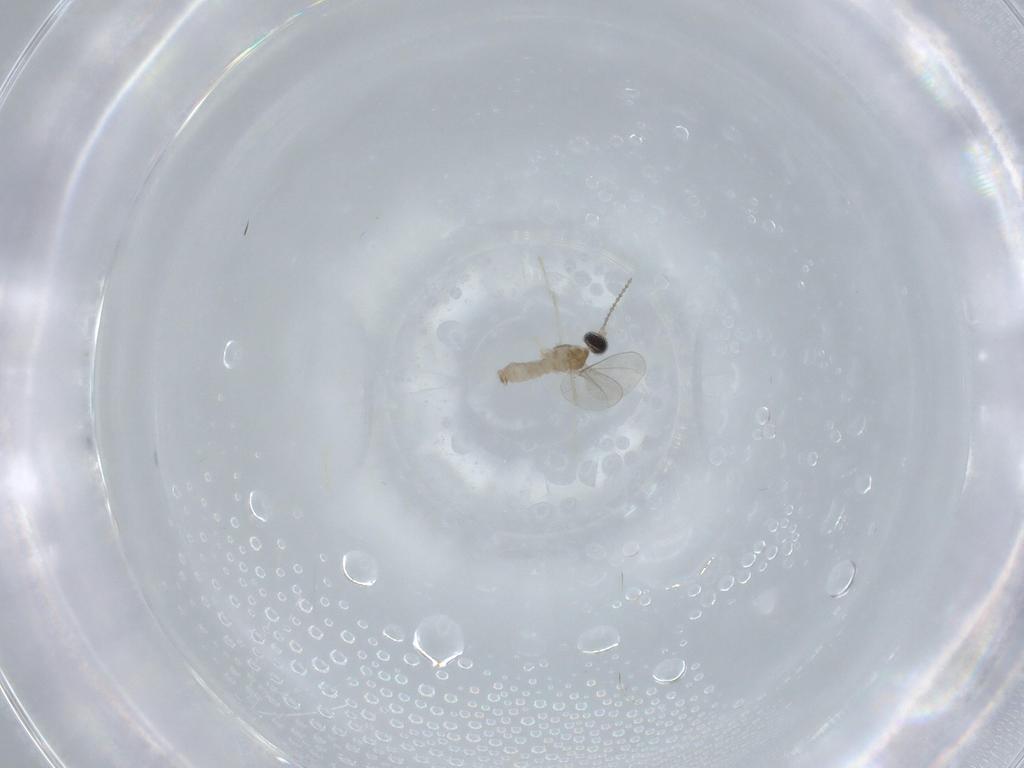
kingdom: Animalia
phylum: Arthropoda
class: Insecta
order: Diptera
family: Cecidomyiidae
